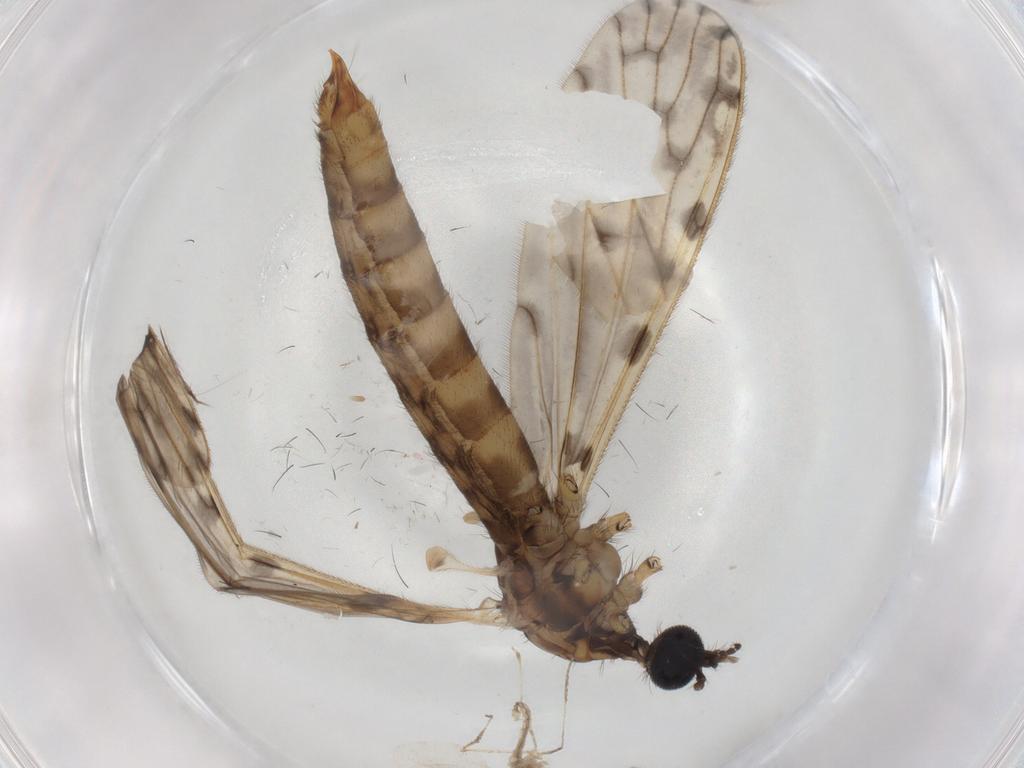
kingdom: Animalia
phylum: Arthropoda
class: Insecta
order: Diptera
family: Limoniidae
